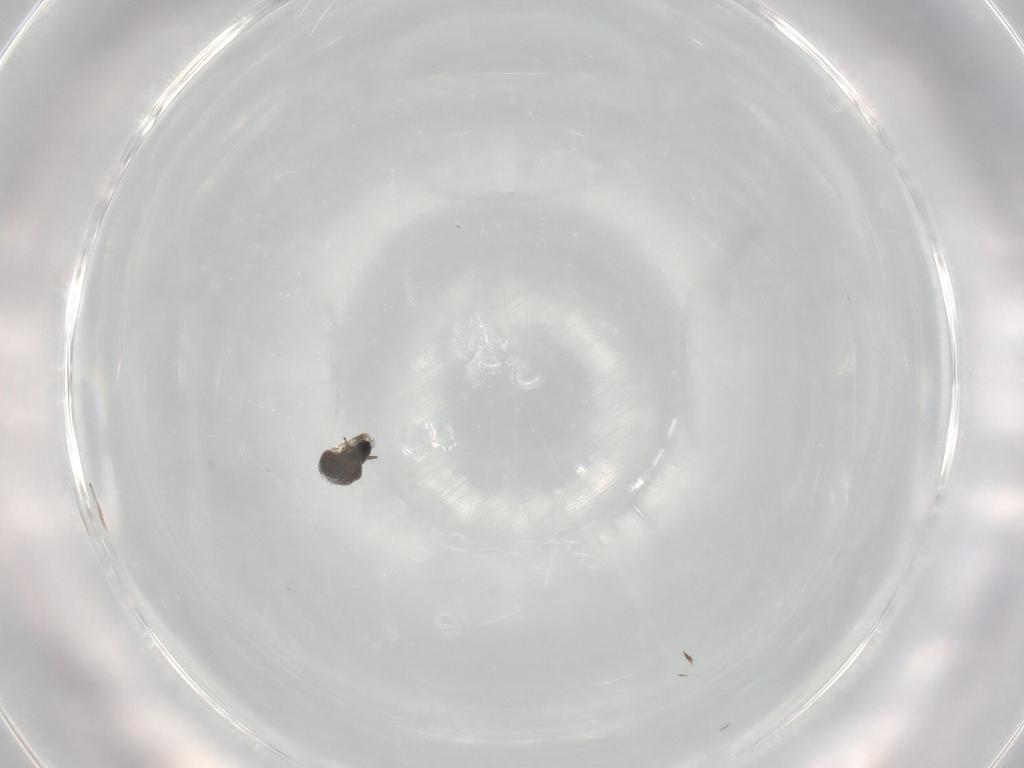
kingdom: Animalia
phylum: Arthropoda
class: Insecta
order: Hymenoptera
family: Scelionidae
